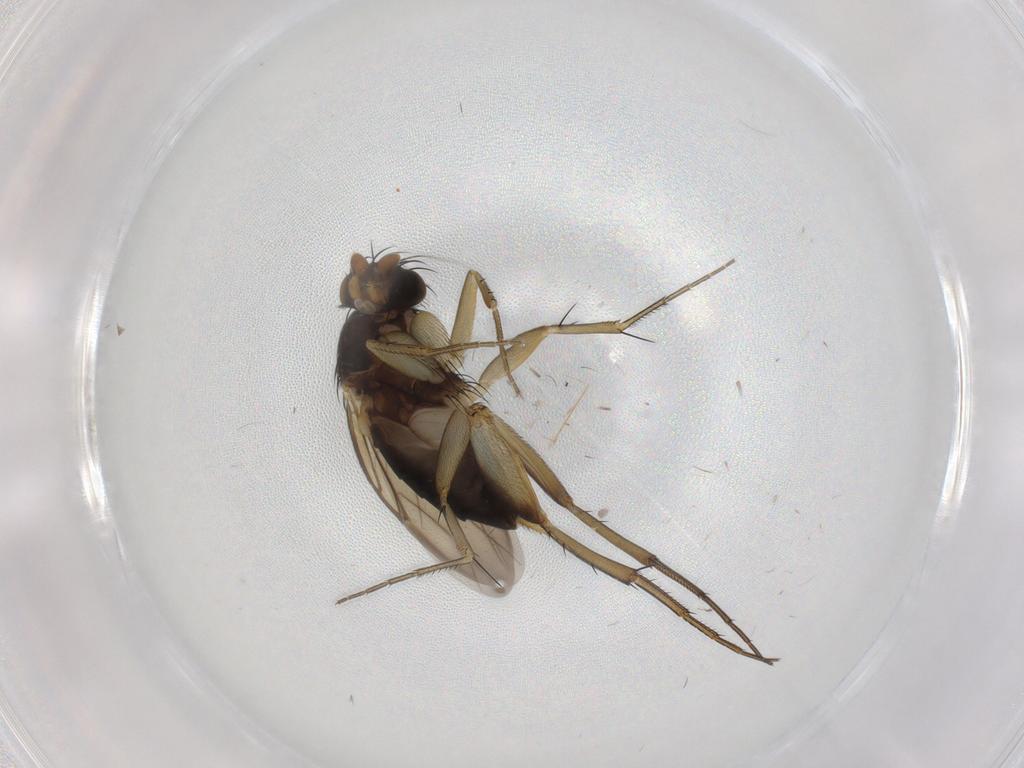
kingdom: Animalia
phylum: Arthropoda
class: Insecta
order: Diptera
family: Phoridae
